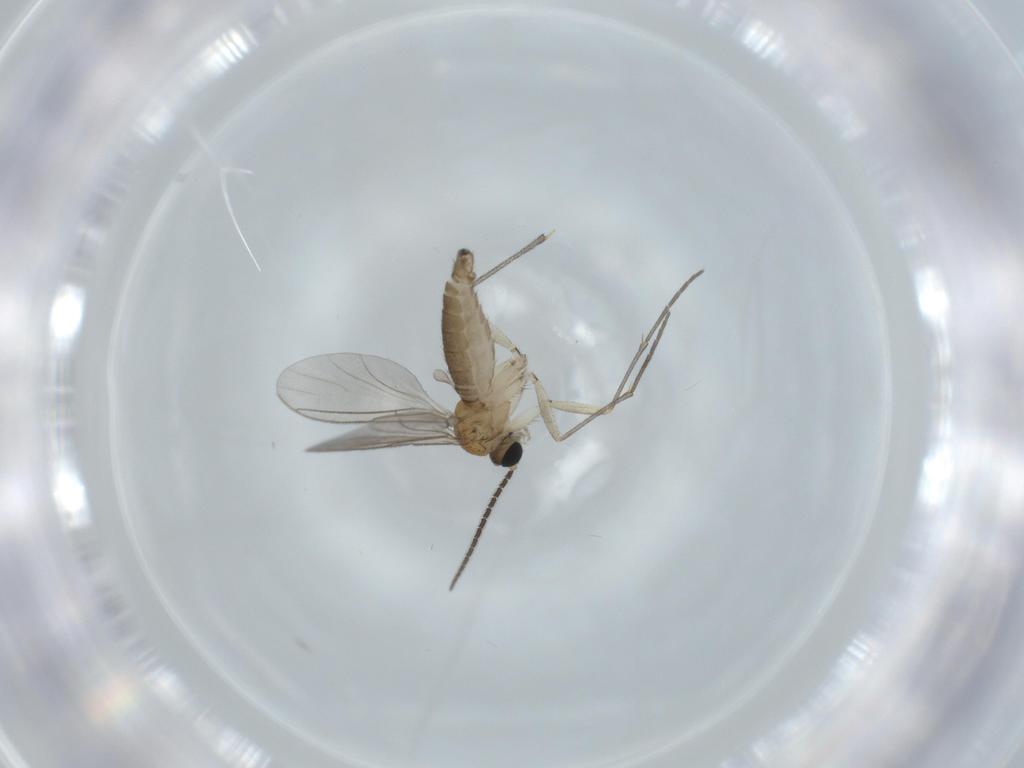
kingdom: Animalia
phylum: Arthropoda
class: Insecta
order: Diptera
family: Sciaridae
